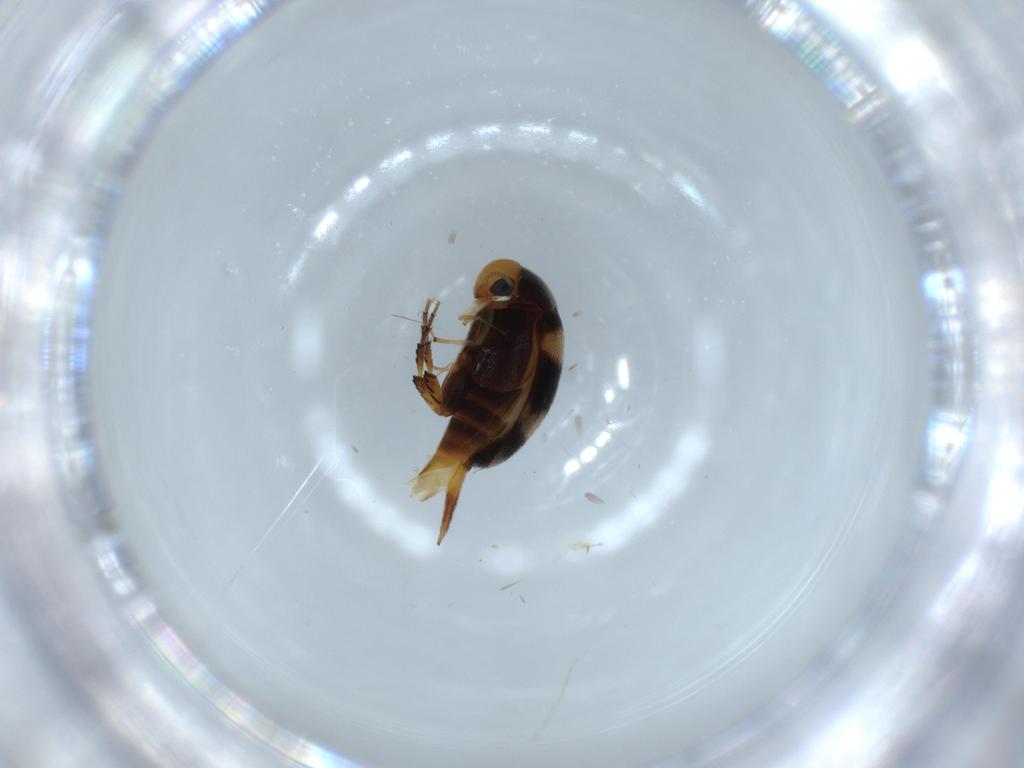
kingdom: Animalia
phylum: Arthropoda
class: Insecta
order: Coleoptera
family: Mordellidae
